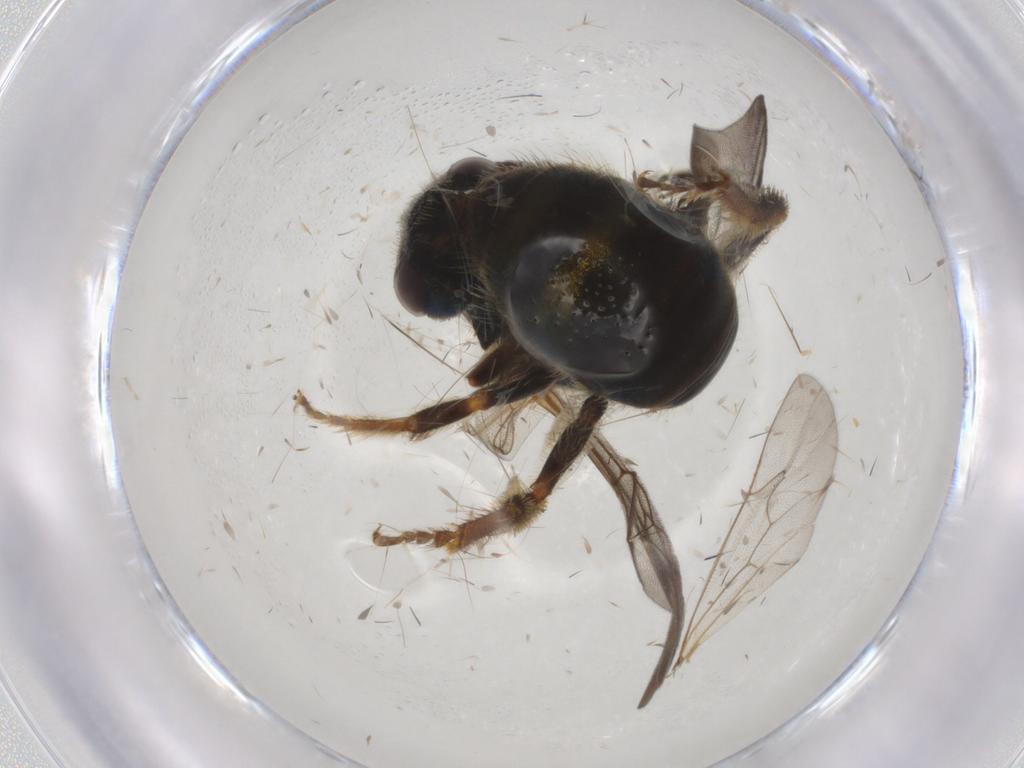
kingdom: Animalia
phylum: Arthropoda
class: Insecta
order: Hymenoptera
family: Halictidae
